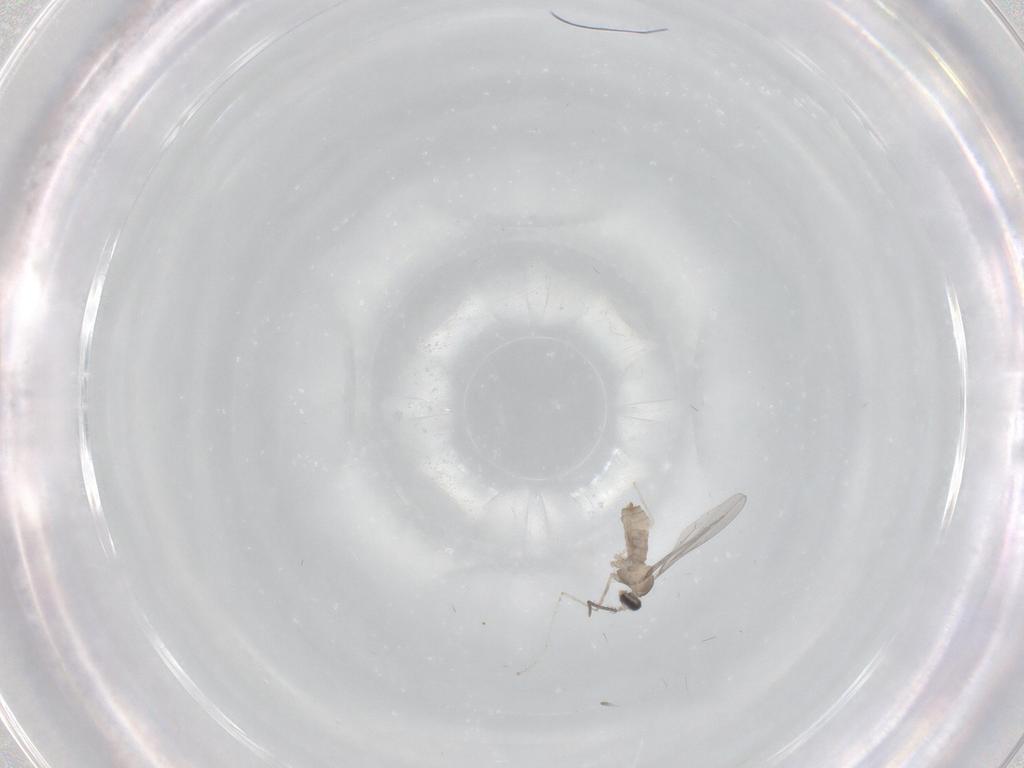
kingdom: Animalia
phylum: Arthropoda
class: Insecta
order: Diptera
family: Cecidomyiidae
